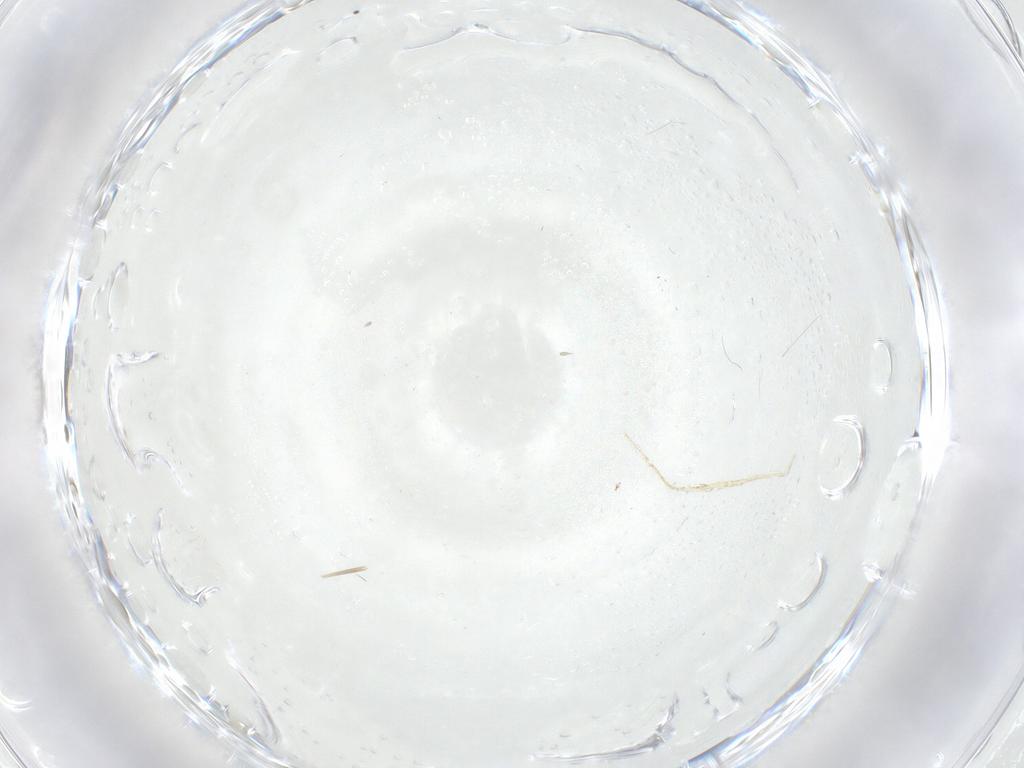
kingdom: Animalia
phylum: Arthropoda
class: Insecta
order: Diptera
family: Cecidomyiidae
